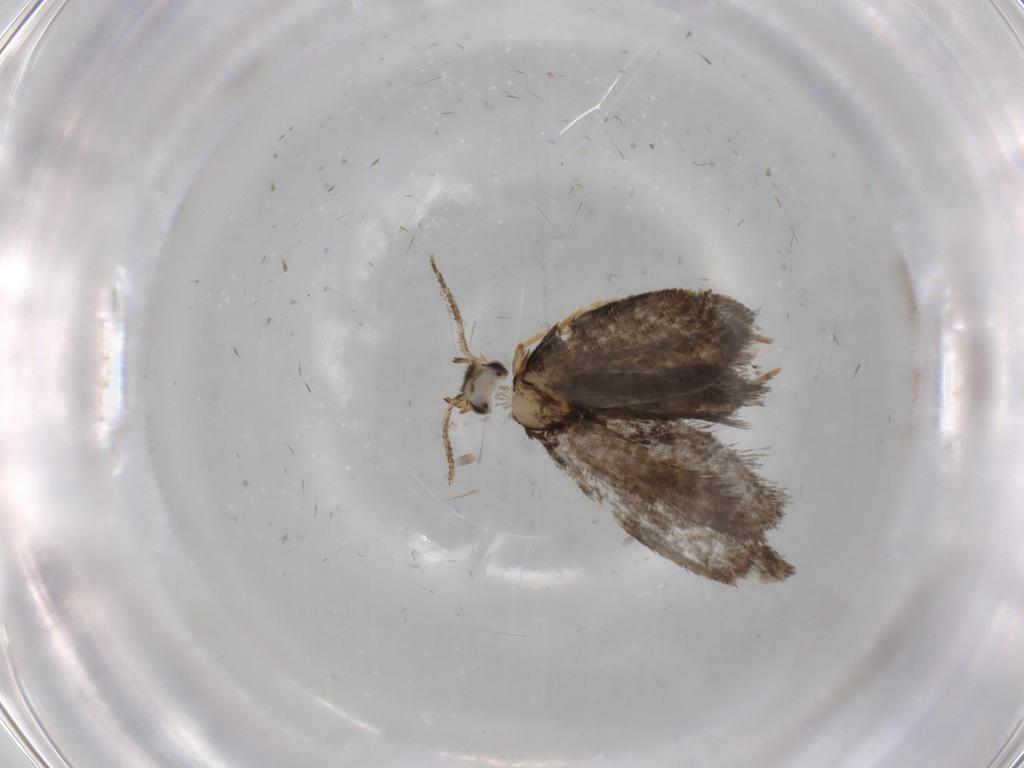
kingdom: Animalia
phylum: Arthropoda
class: Insecta
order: Lepidoptera
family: Psychidae
